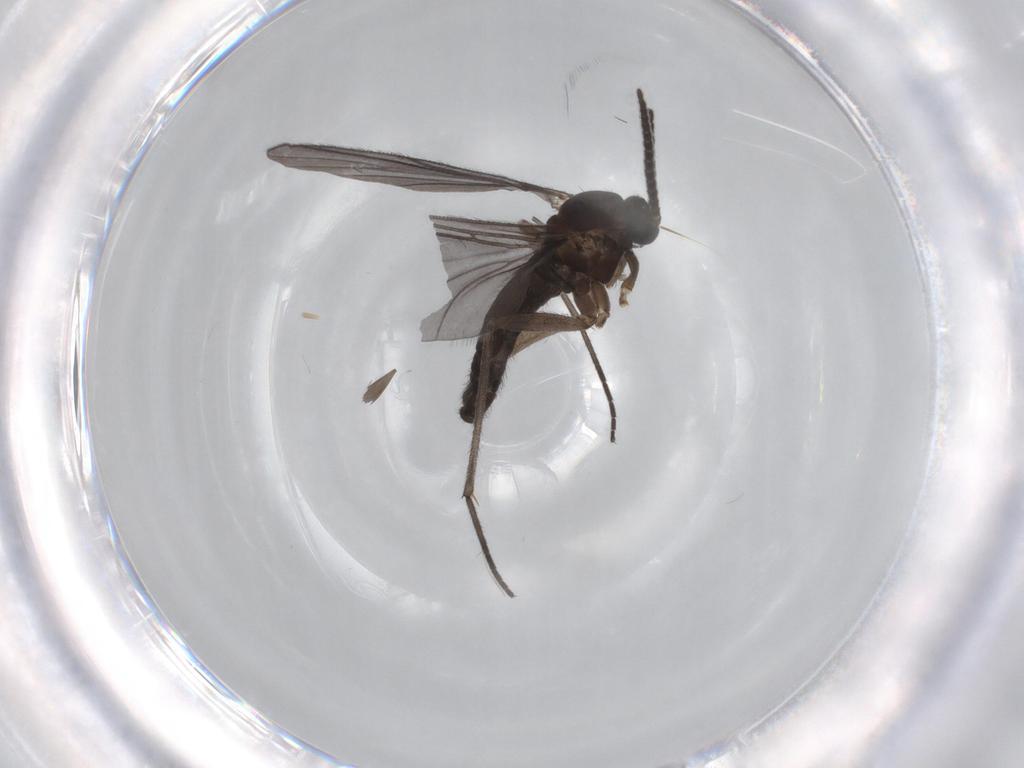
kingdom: Animalia
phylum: Arthropoda
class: Insecta
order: Diptera
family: Sciaridae
